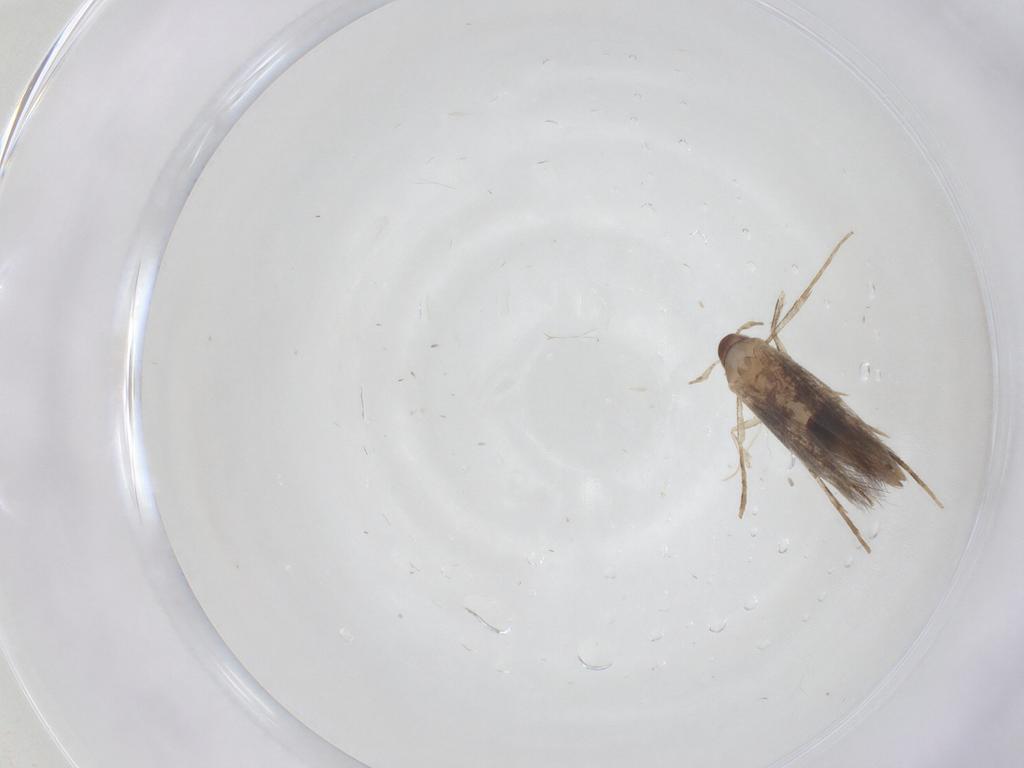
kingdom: Animalia
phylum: Arthropoda
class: Insecta
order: Lepidoptera
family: Cosmopterigidae
